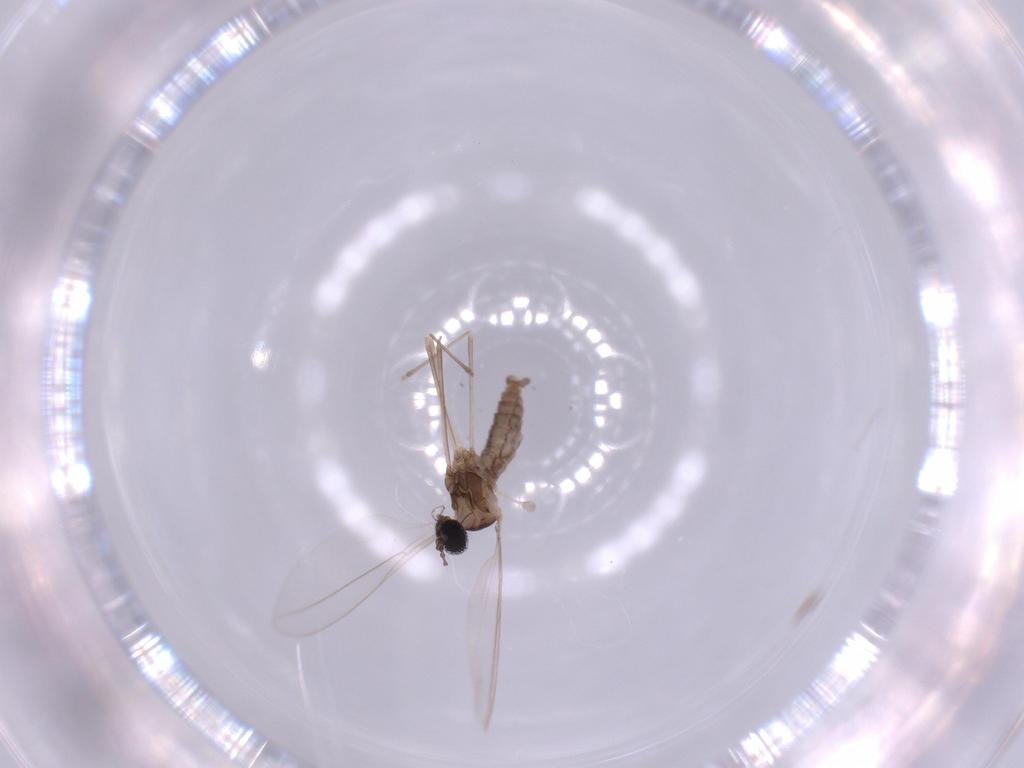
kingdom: Animalia
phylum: Arthropoda
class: Insecta
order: Diptera
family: Cecidomyiidae
